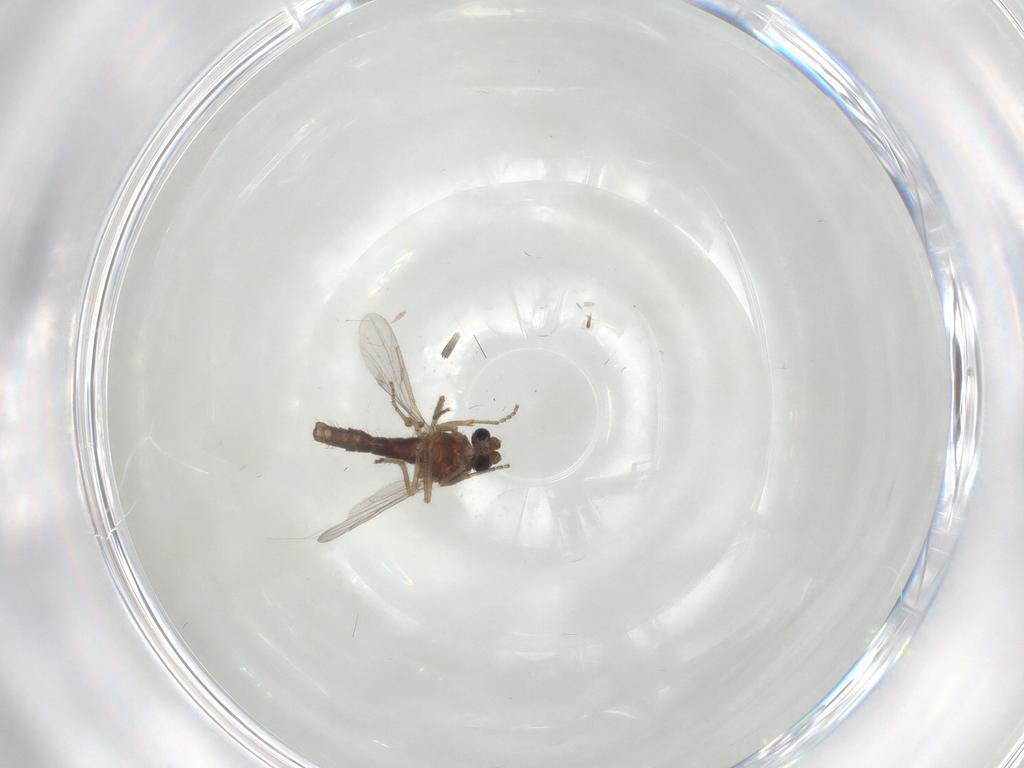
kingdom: Animalia
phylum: Arthropoda
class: Insecta
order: Diptera
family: Ceratopogonidae
